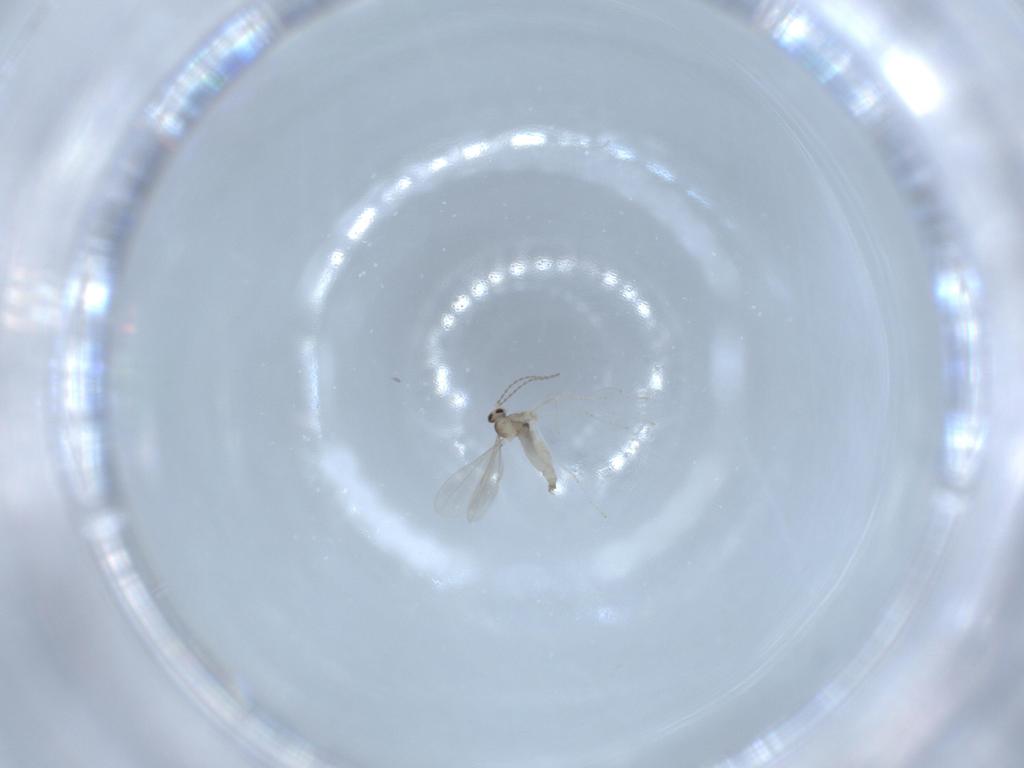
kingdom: Animalia
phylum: Arthropoda
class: Insecta
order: Diptera
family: Cecidomyiidae
